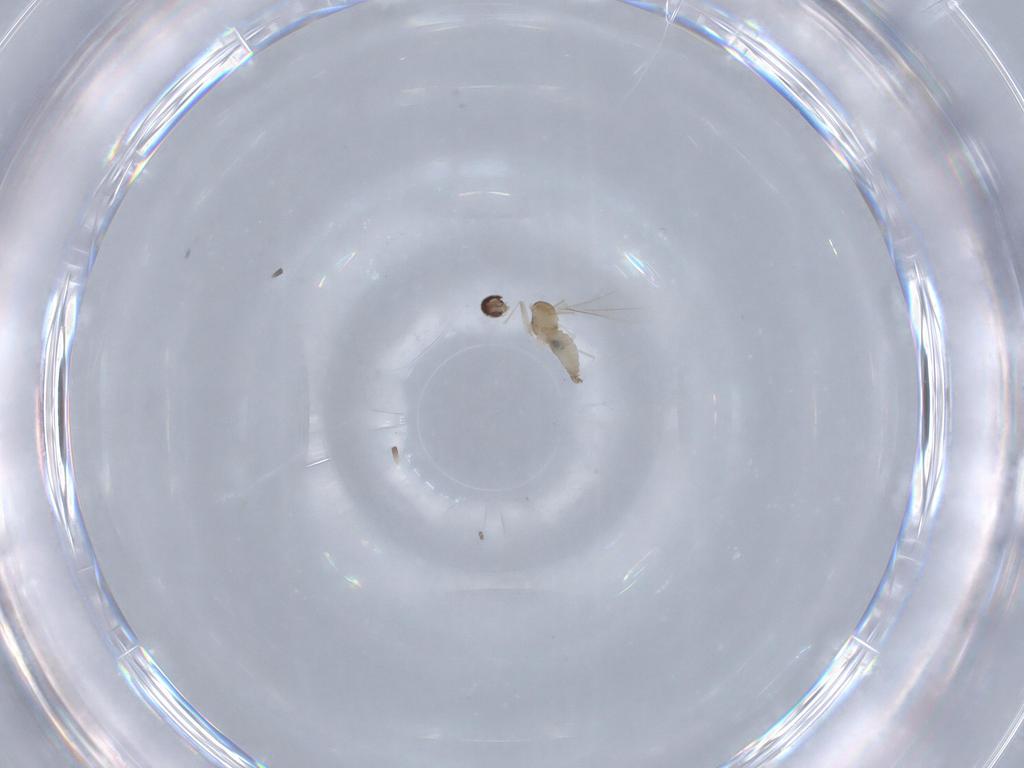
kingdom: Animalia
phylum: Arthropoda
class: Insecta
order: Diptera
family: Cecidomyiidae
